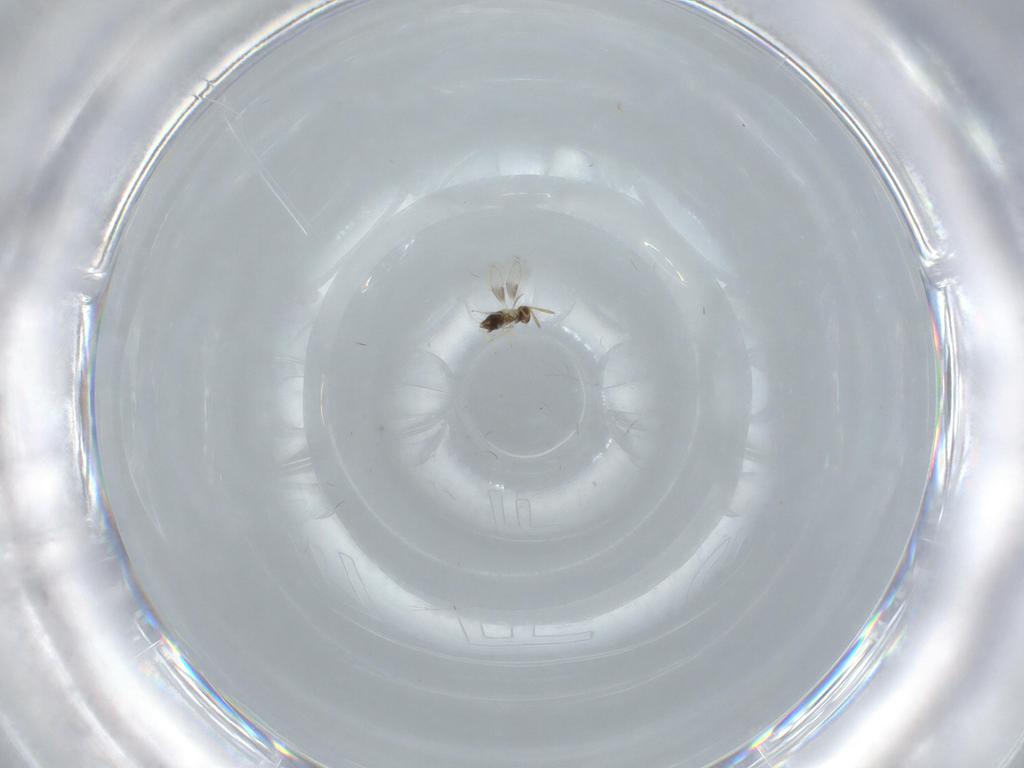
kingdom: Animalia
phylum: Arthropoda
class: Insecta
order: Hymenoptera
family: Aphelinidae
